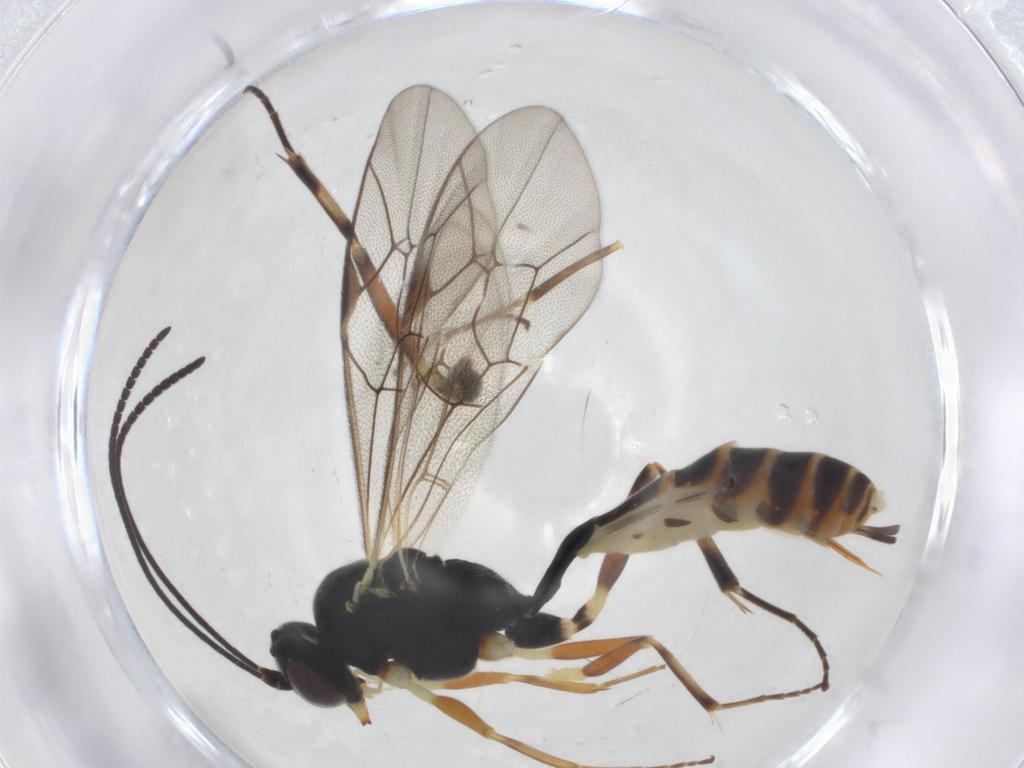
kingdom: Animalia
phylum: Arthropoda
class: Insecta
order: Hymenoptera
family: Ichneumonidae
